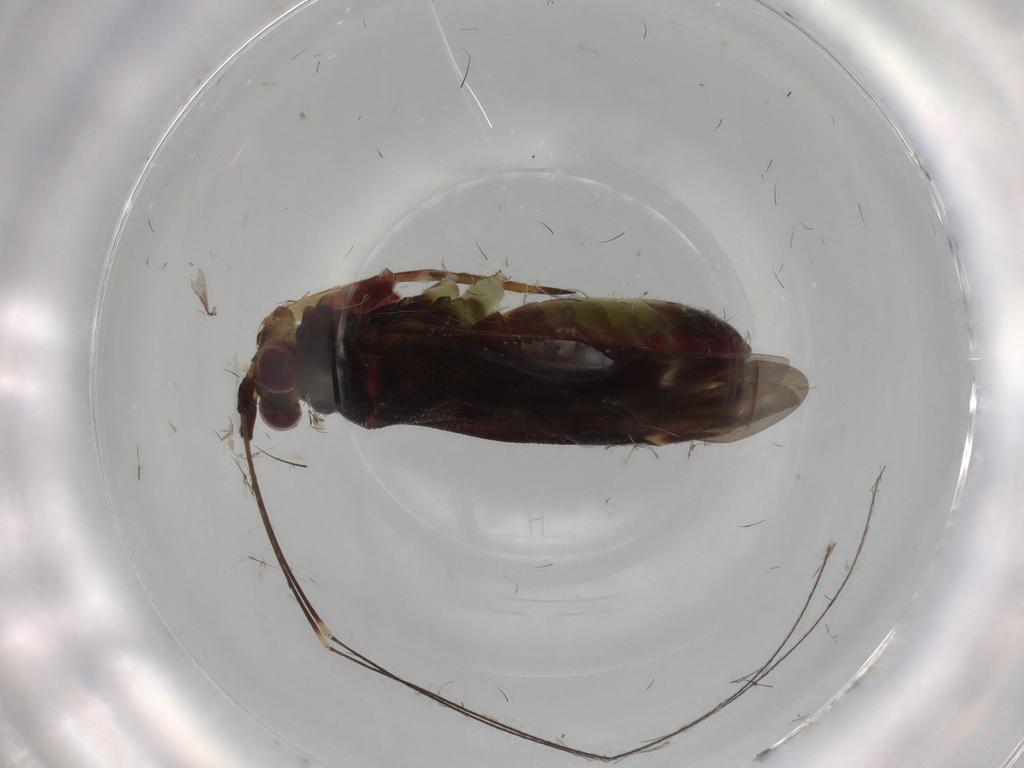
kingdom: Animalia
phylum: Arthropoda
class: Insecta
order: Hemiptera
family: Miridae
